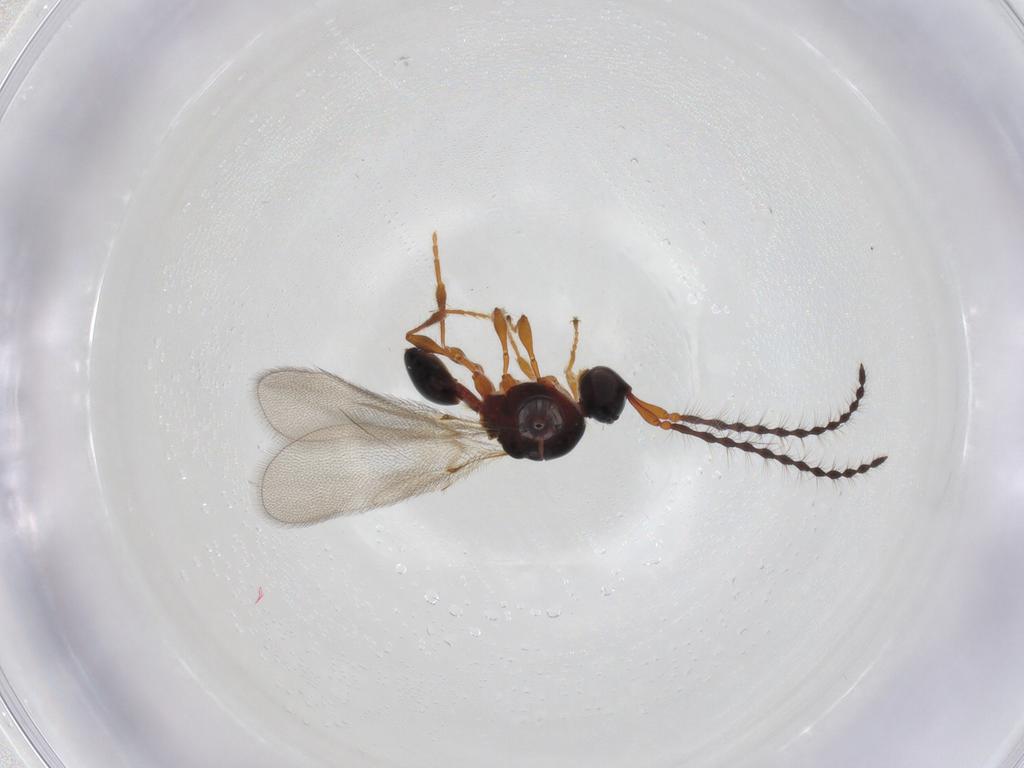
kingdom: Animalia
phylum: Arthropoda
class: Insecta
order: Hymenoptera
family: Diapriidae
